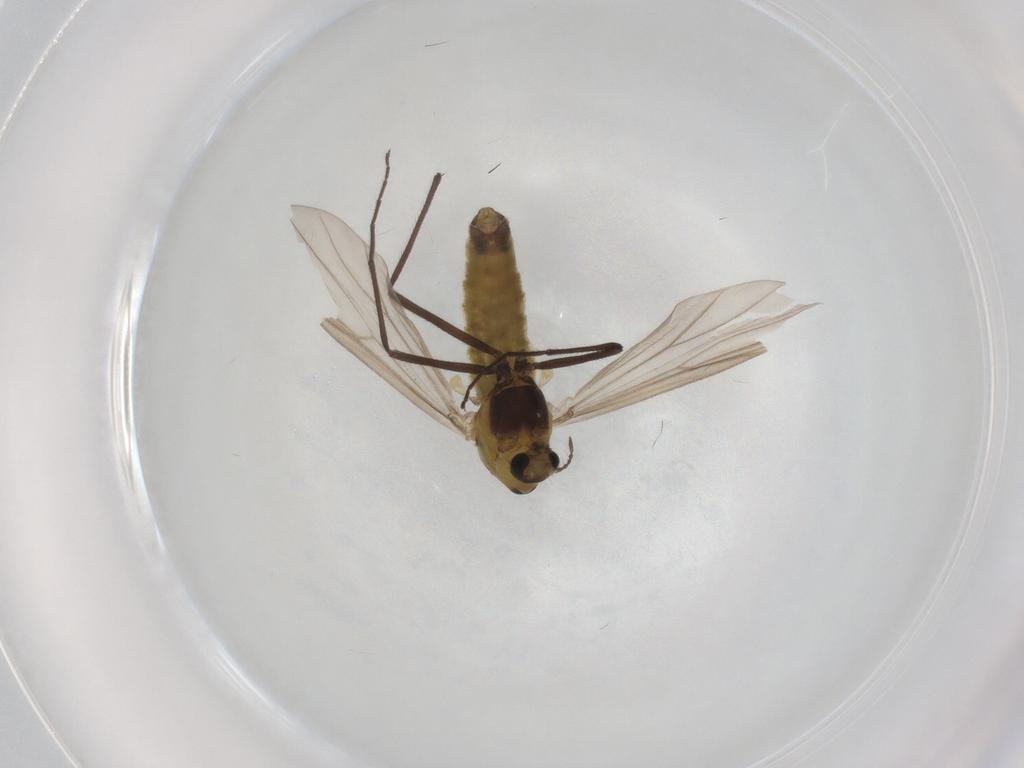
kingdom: Animalia
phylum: Arthropoda
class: Insecta
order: Diptera
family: Chironomidae
